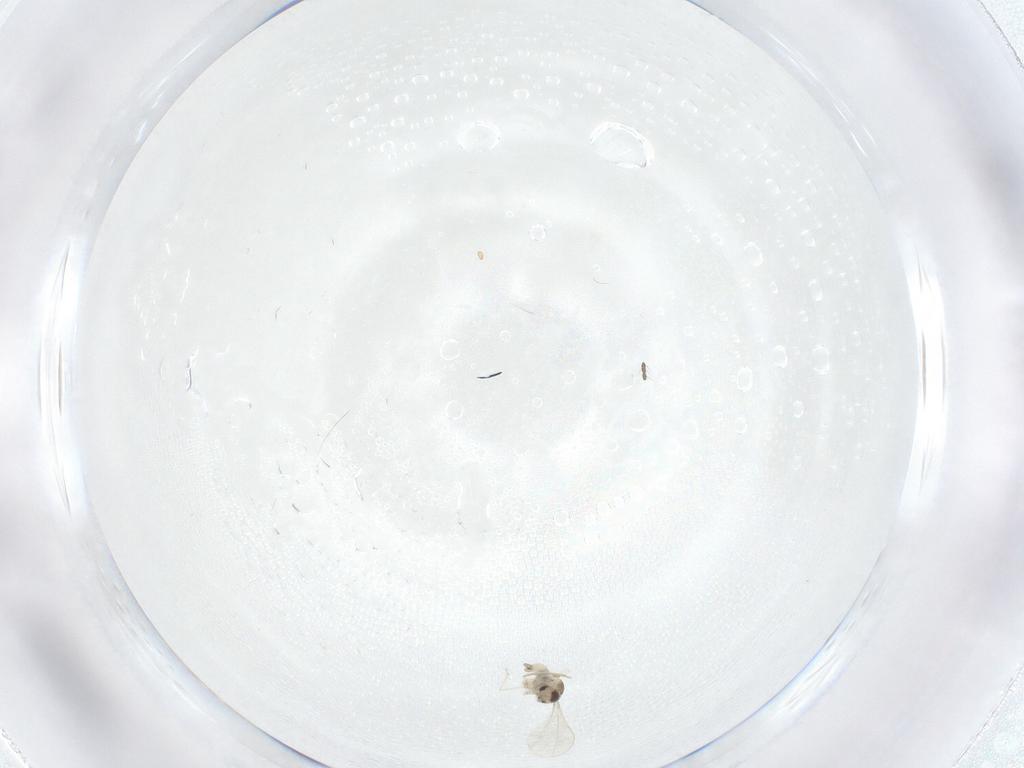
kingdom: Animalia
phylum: Arthropoda
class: Insecta
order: Diptera
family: Cecidomyiidae
